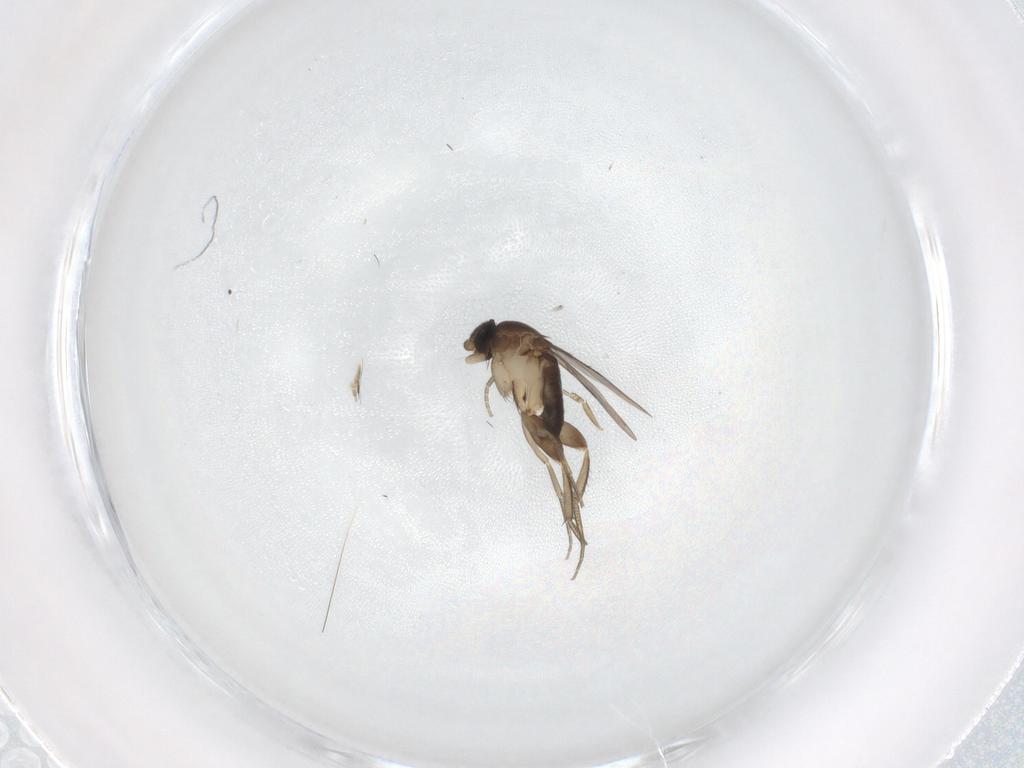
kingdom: Animalia
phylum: Arthropoda
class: Insecta
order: Diptera
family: Phoridae
